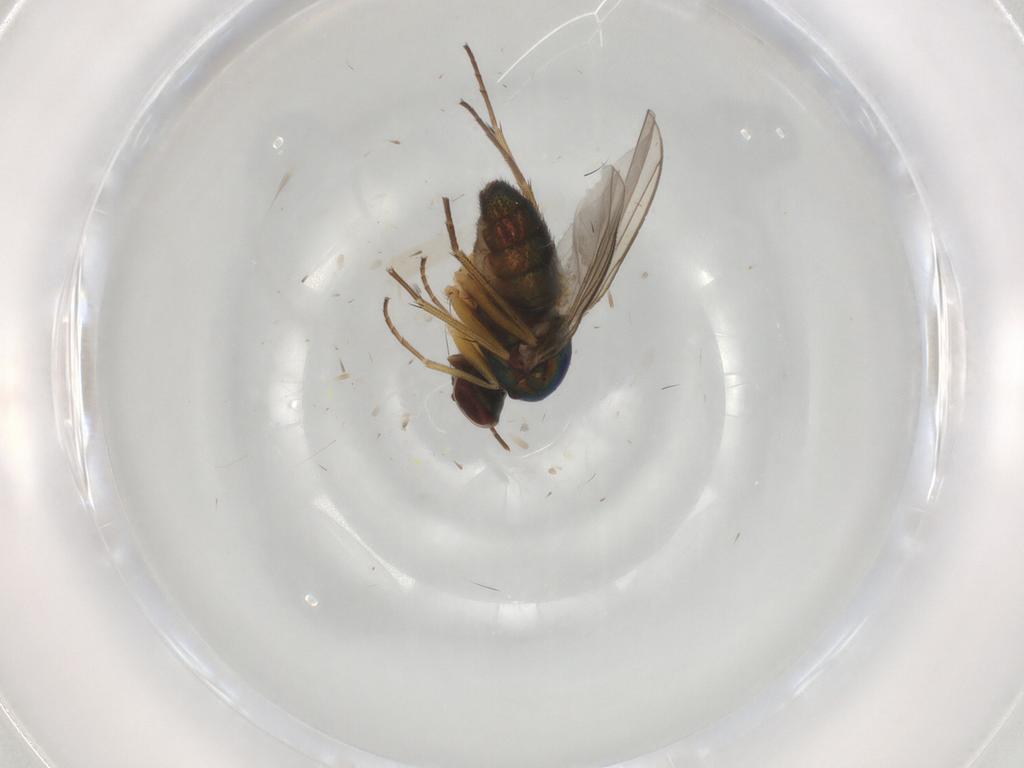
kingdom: Animalia
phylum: Arthropoda
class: Insecta
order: Diptera
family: Dolichopodidae
